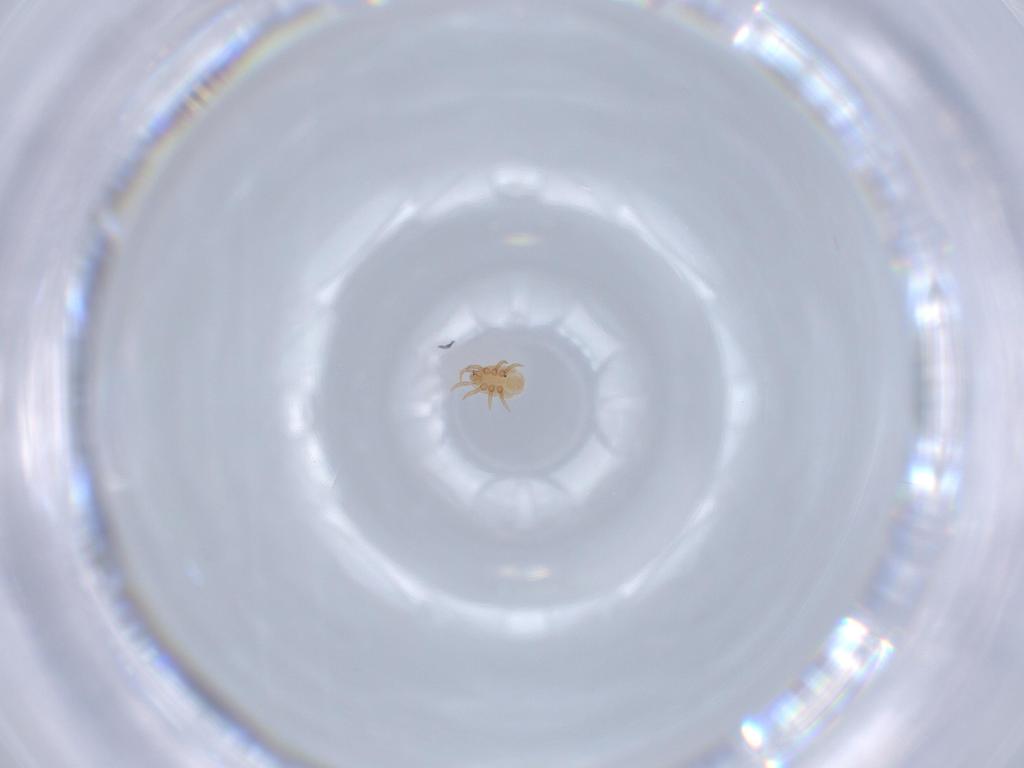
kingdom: Animalia
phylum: Arthropoda
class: Arachnida
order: Mesostigmata
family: Dinychidae
